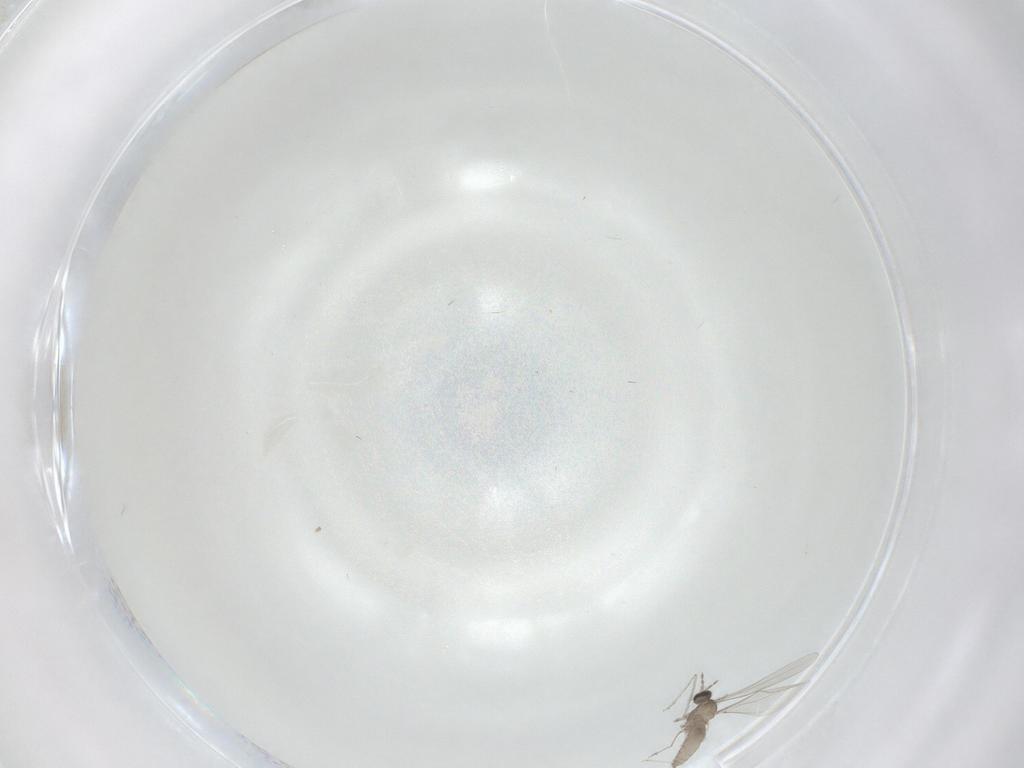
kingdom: Animalia
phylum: Arthropoda
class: Insecta
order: Diptera
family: Cecidomyiidae
